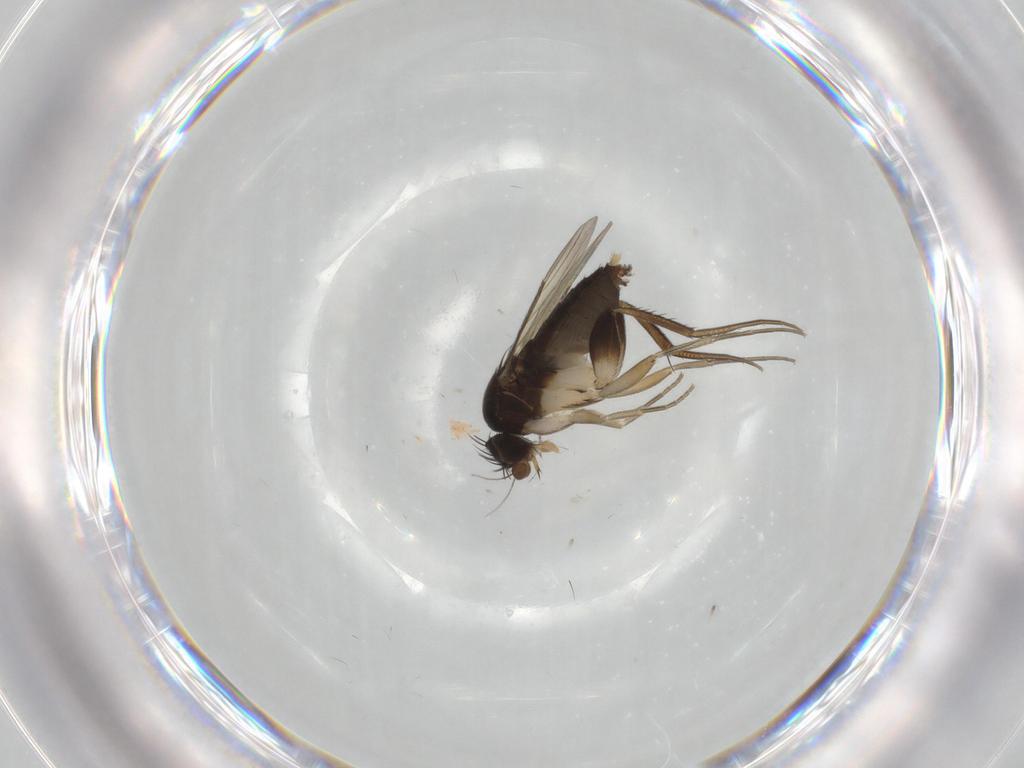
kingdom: Animalia
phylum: Arthropoda
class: Insecta
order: Diptera
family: Phoridae
